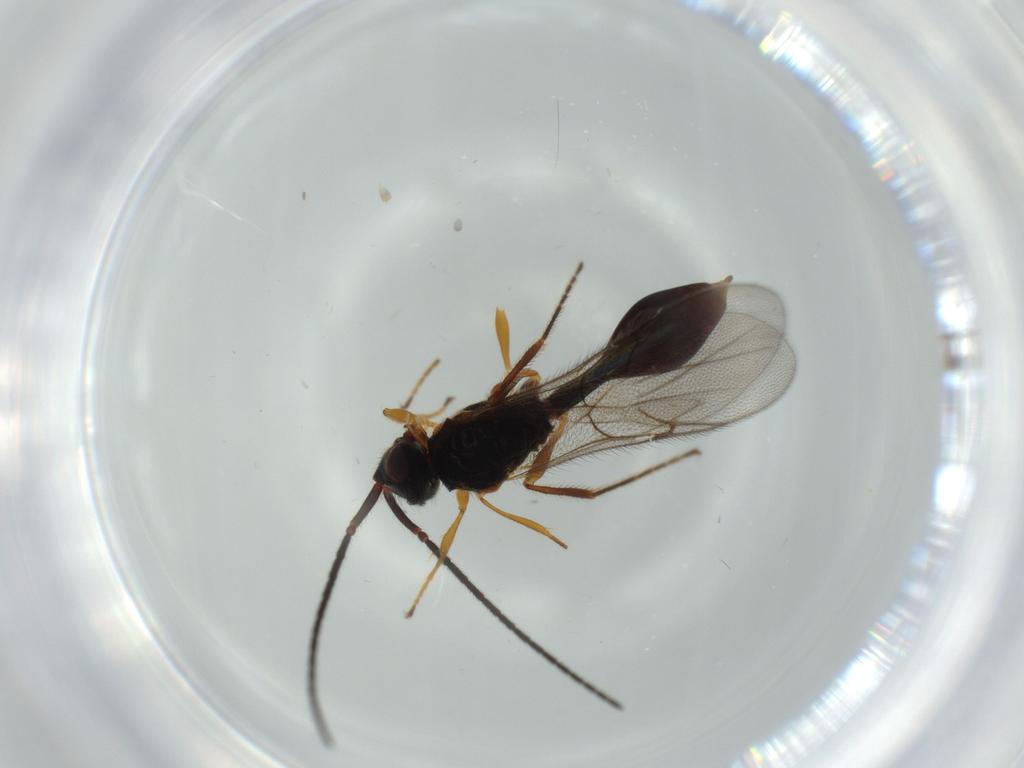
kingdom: Animalia
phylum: Arthropoda
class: Insecta
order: Hymenoptera
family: Diapriidae
